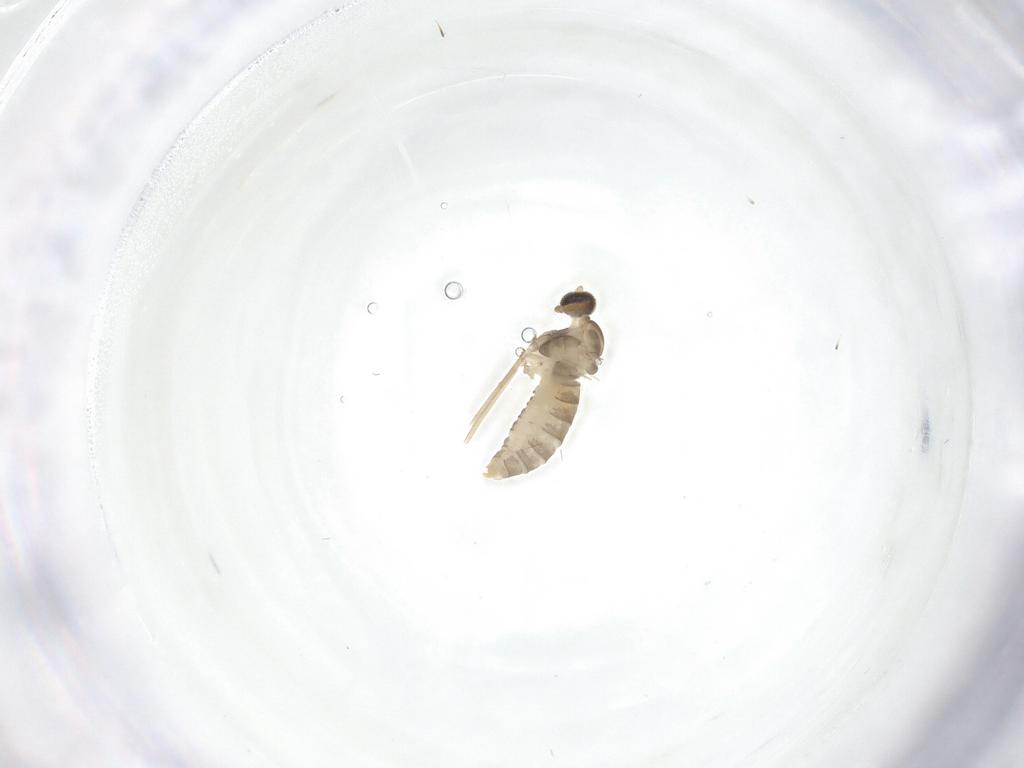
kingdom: Animalia
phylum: Arthropoda
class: Insecta
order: Diptera
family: Cecidomyiidae
